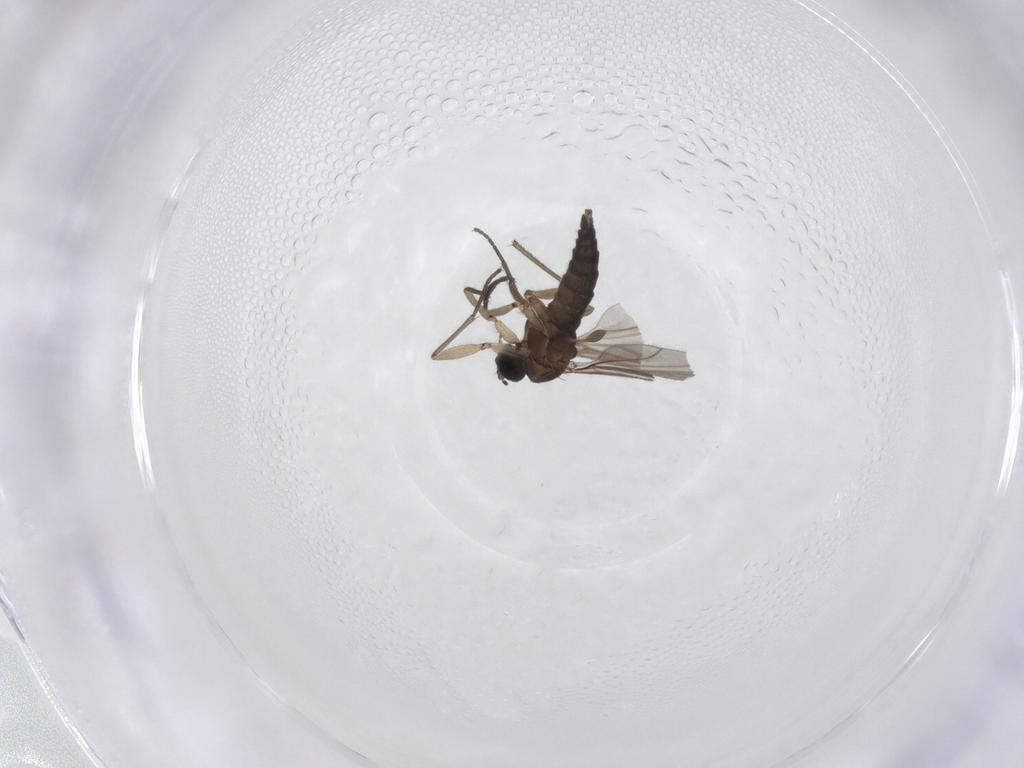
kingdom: Animalia
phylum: Arthropoda
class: Insecta
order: Diptera
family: Sciaridae
